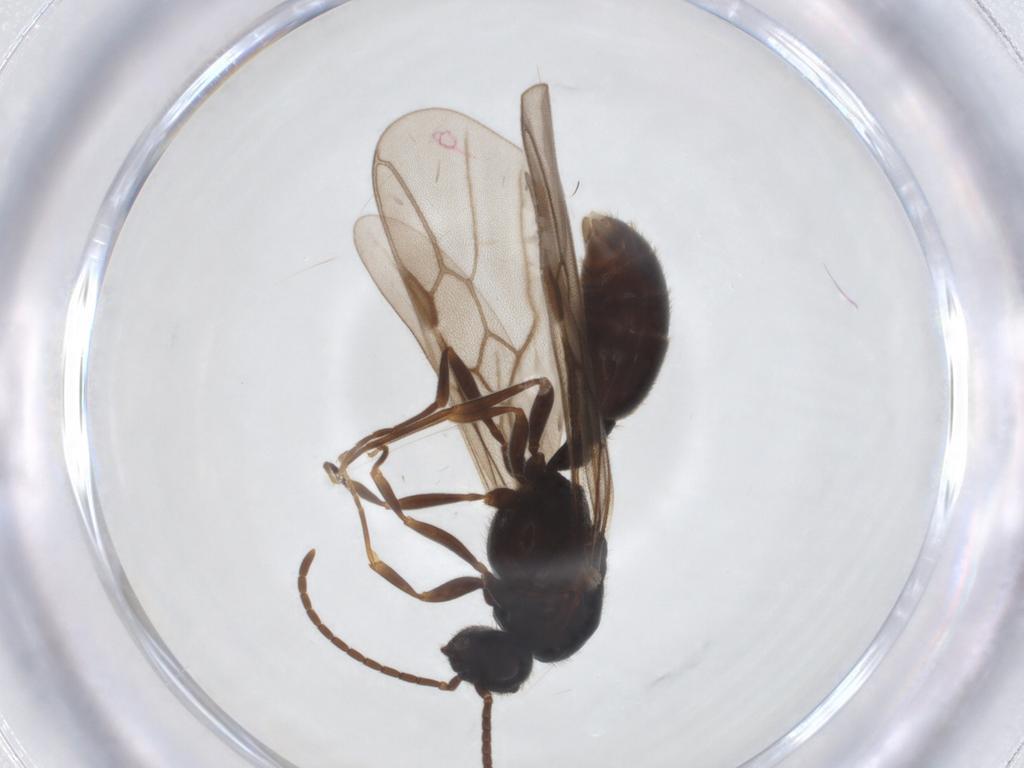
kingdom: Animalia
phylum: Arthropoda
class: Insecta
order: Hymenoptera
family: Formicidae
